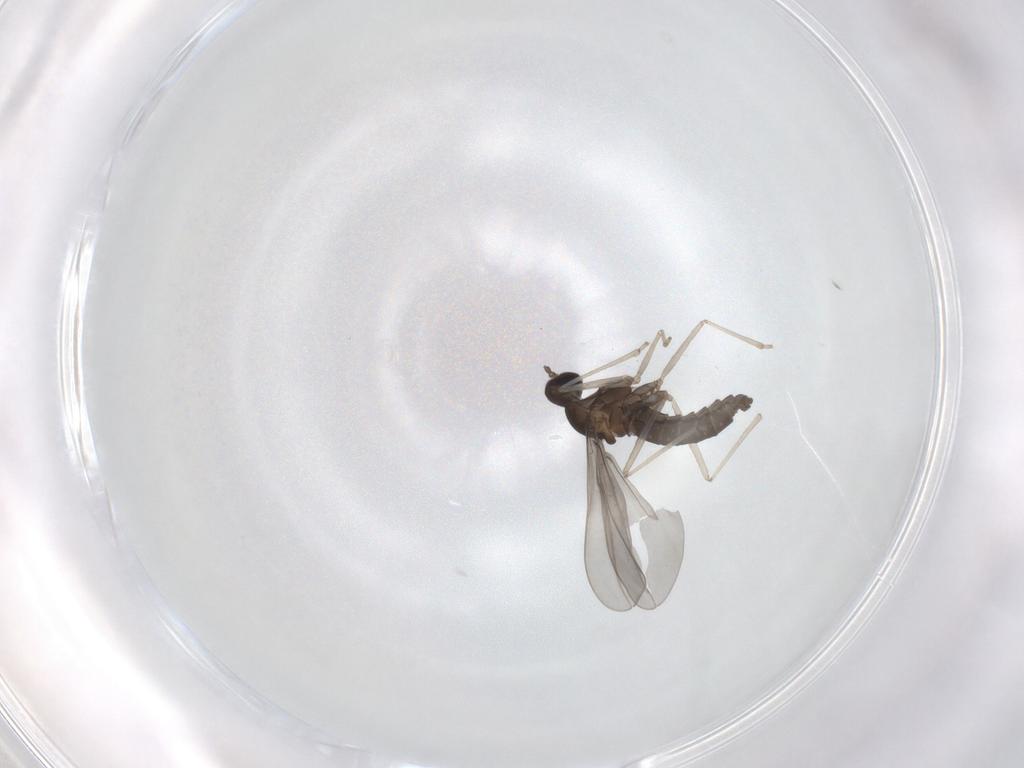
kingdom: Animalia
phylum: Arthropoda
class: Insecta
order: Diptera
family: Cecidomyiidae
